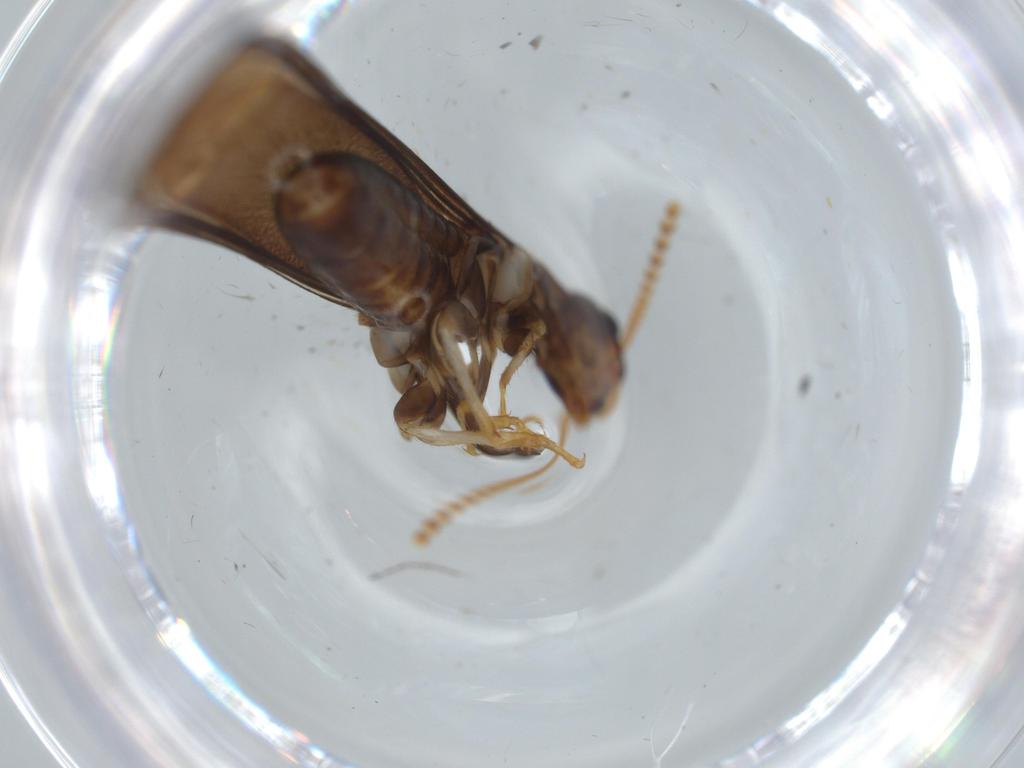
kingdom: Animalia
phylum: Arthropoda
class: Insecta
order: Blattodea
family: Kalotermitidae
